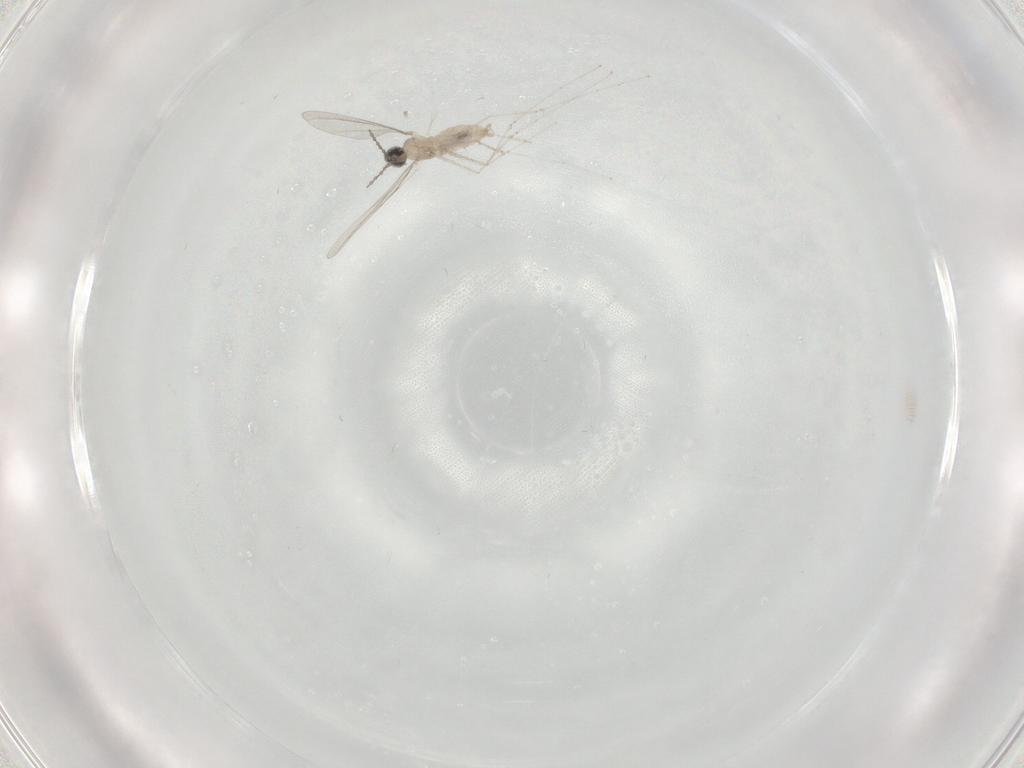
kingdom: Animalia
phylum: Arthropoda
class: Insecta
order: Diptera
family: Cecidomyiidae
